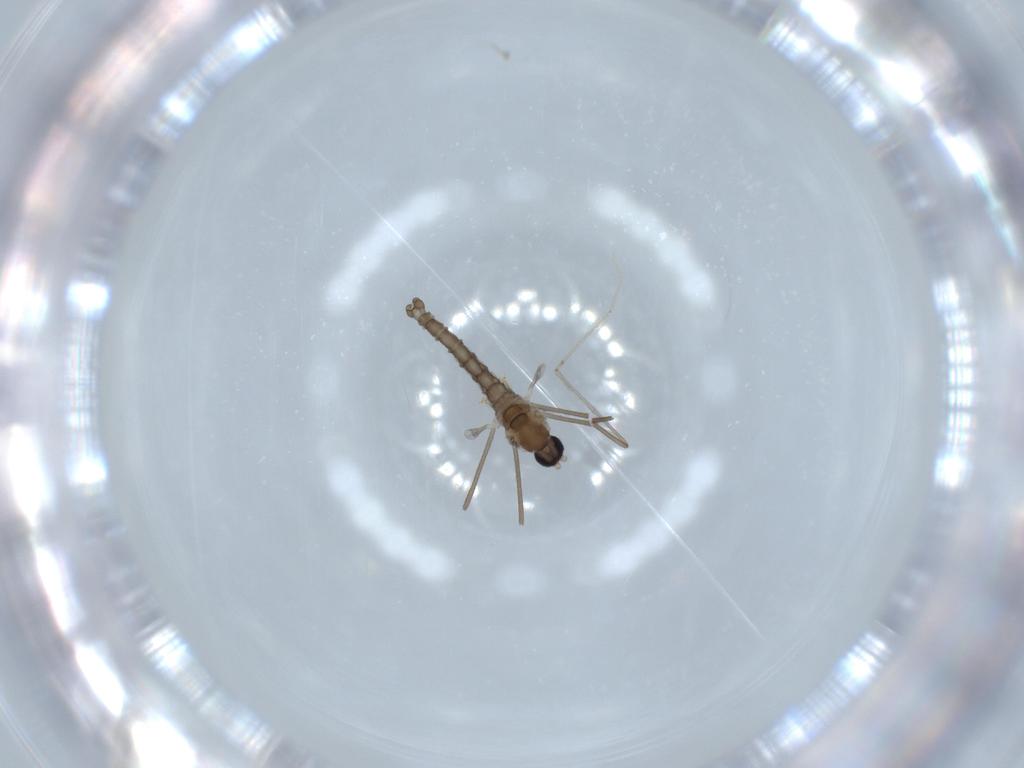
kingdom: Animalia
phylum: Arthropoda
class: Insecta
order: Diptera
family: Cecidomyiidae
